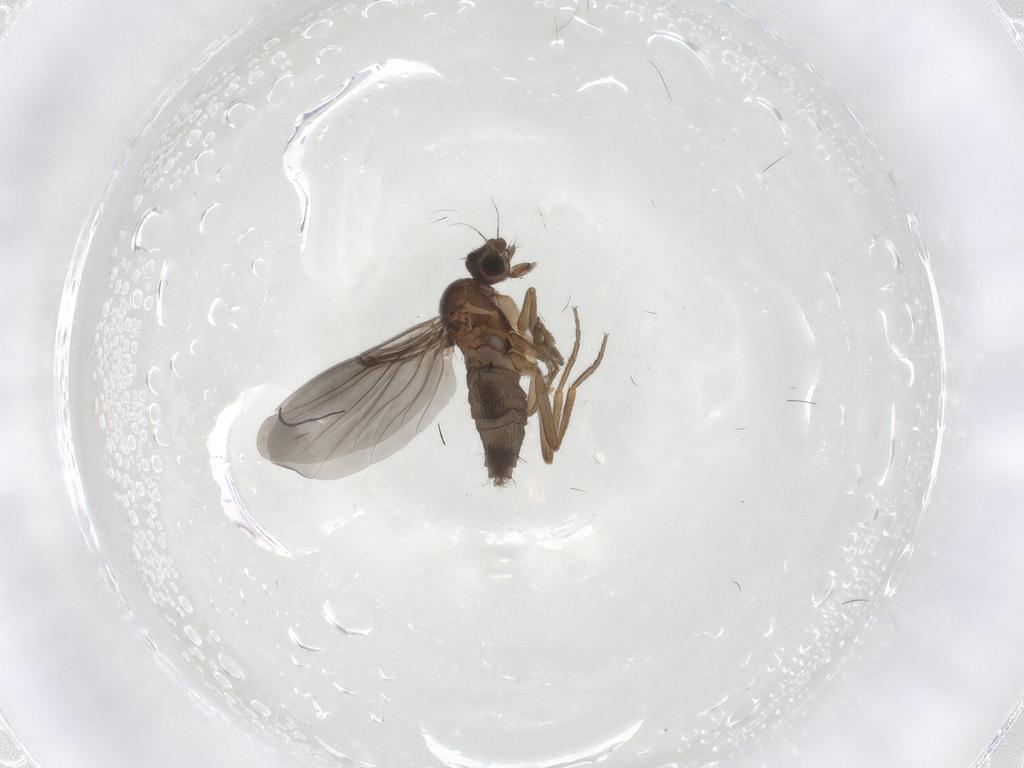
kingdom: Animalia
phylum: Arthropoda
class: Insecta
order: Diptera
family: Phoridae
